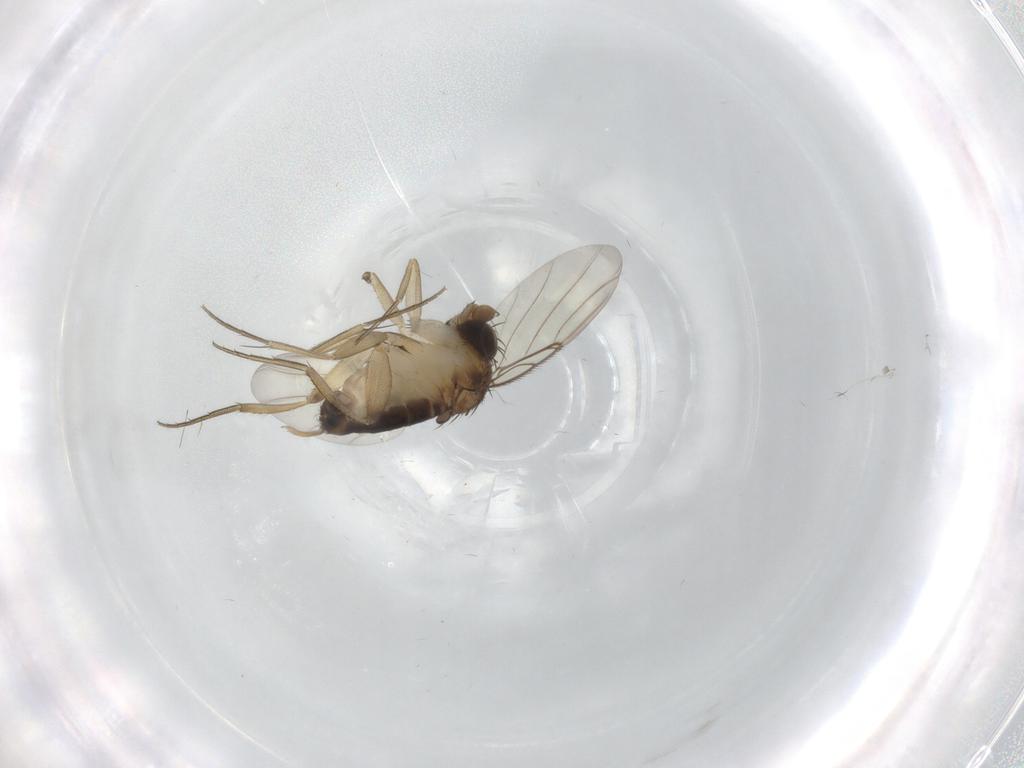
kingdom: Animalia
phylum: Arthropoda
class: Insecta
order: Diptera
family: Phoridae
